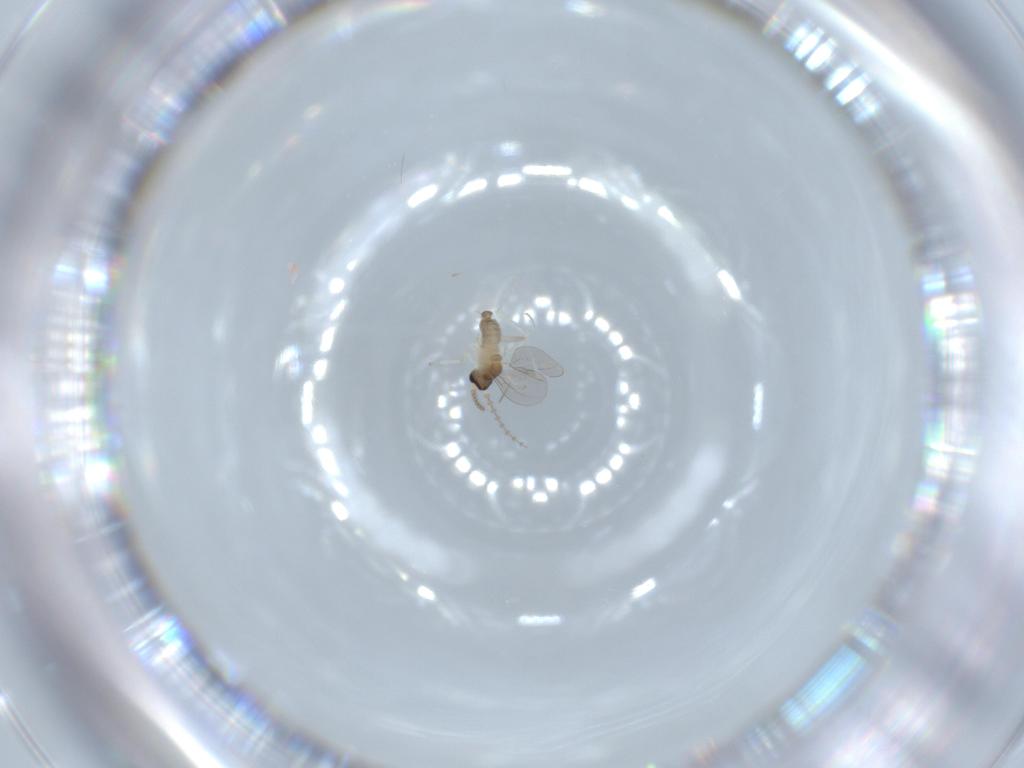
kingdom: Animalia
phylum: Arthropoda
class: Insecta
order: Diptera
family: Cecidomyiidae
